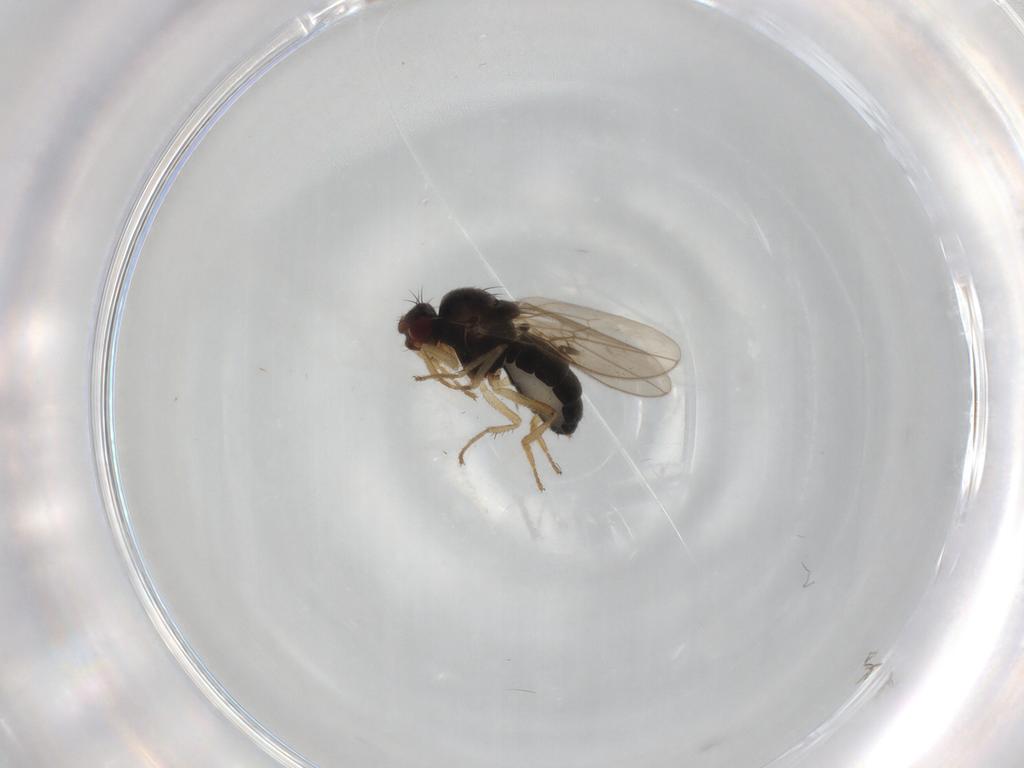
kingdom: Animalia
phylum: Arthropoda
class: Insecta
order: Diptera
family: Sphaeroceridae
